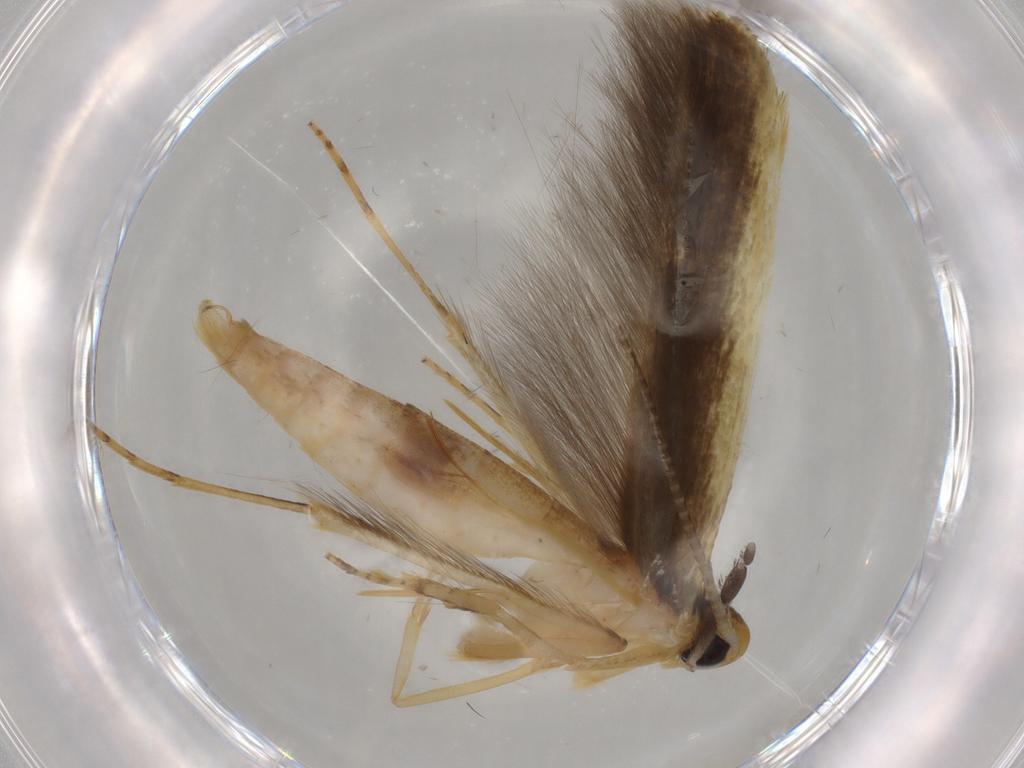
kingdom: Animalia
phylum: Arthropoda
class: Insecta
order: Lepidoptera
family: Pterolonchidae
